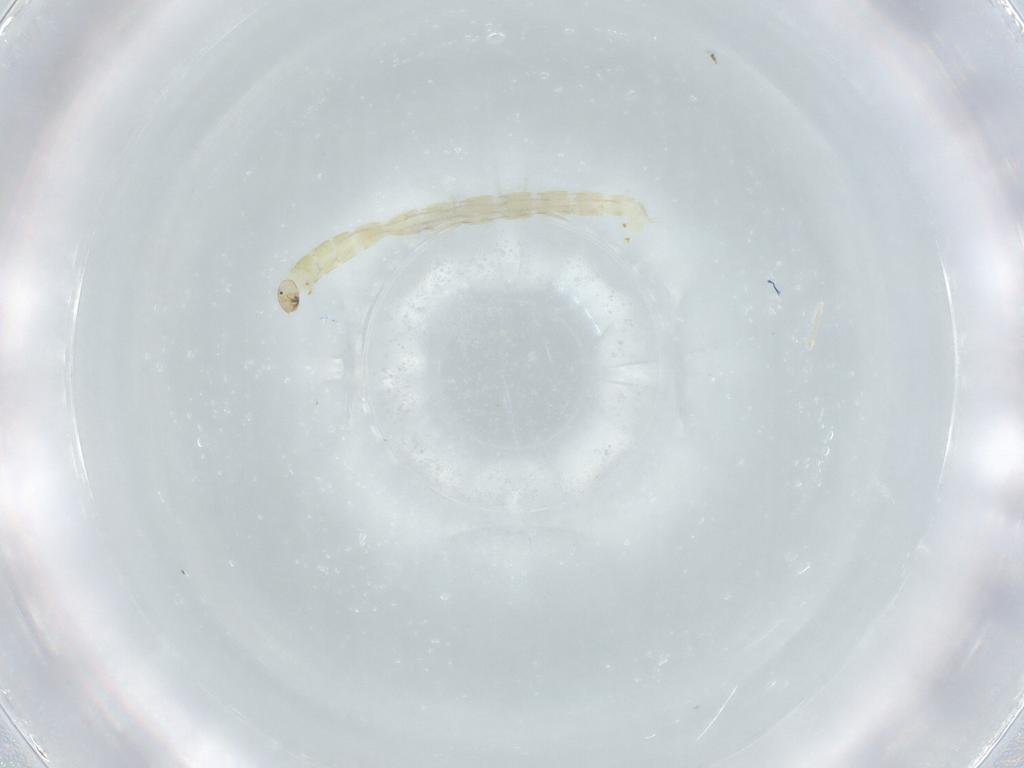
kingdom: Animalia
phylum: Arthropoda
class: Insecta
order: Diptera
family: Chironomidae
